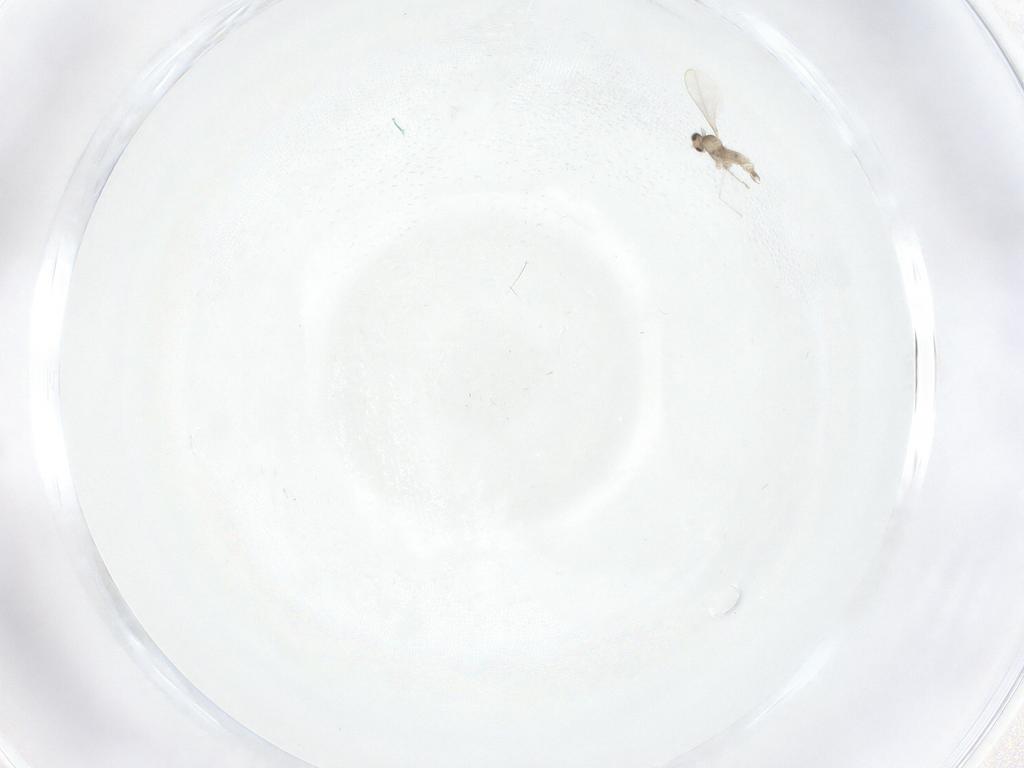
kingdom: Animalia
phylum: Arthropoda
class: Insecta
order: Diptera
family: Cecidomyiidae
